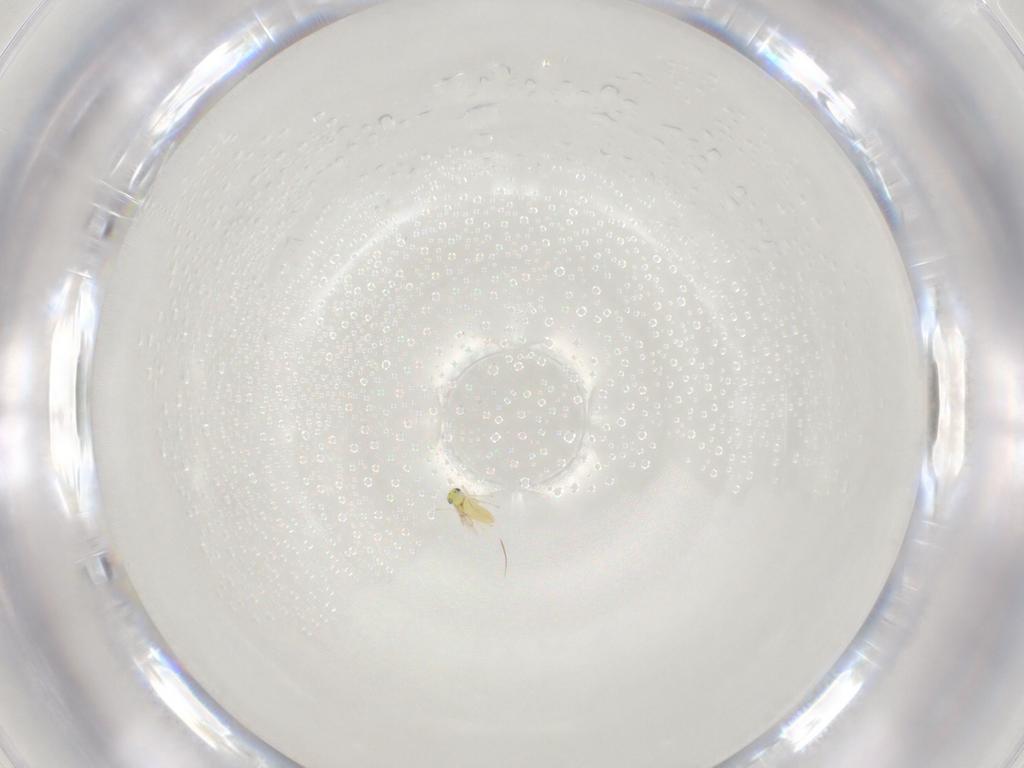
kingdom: Animalia
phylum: Arthropoda
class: Insecta
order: Hymenoptera
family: Trichogrammatidae
